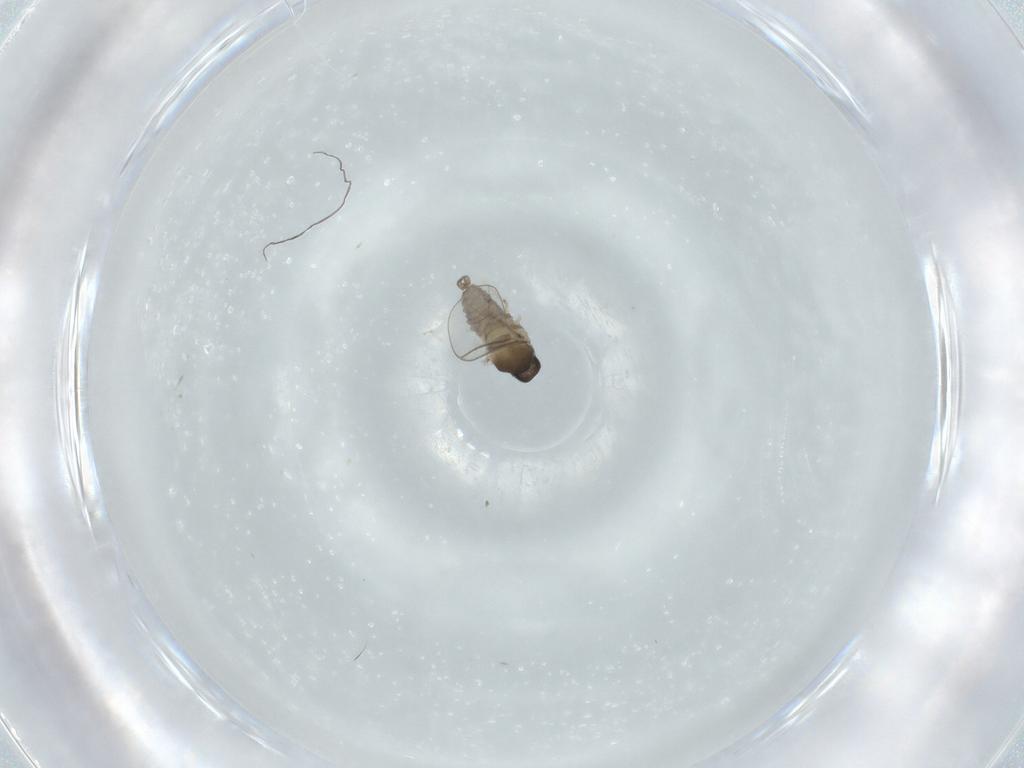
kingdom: Animalia
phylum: Arthropoda
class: Insecta
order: Diptera
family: Cecidomyiidae
